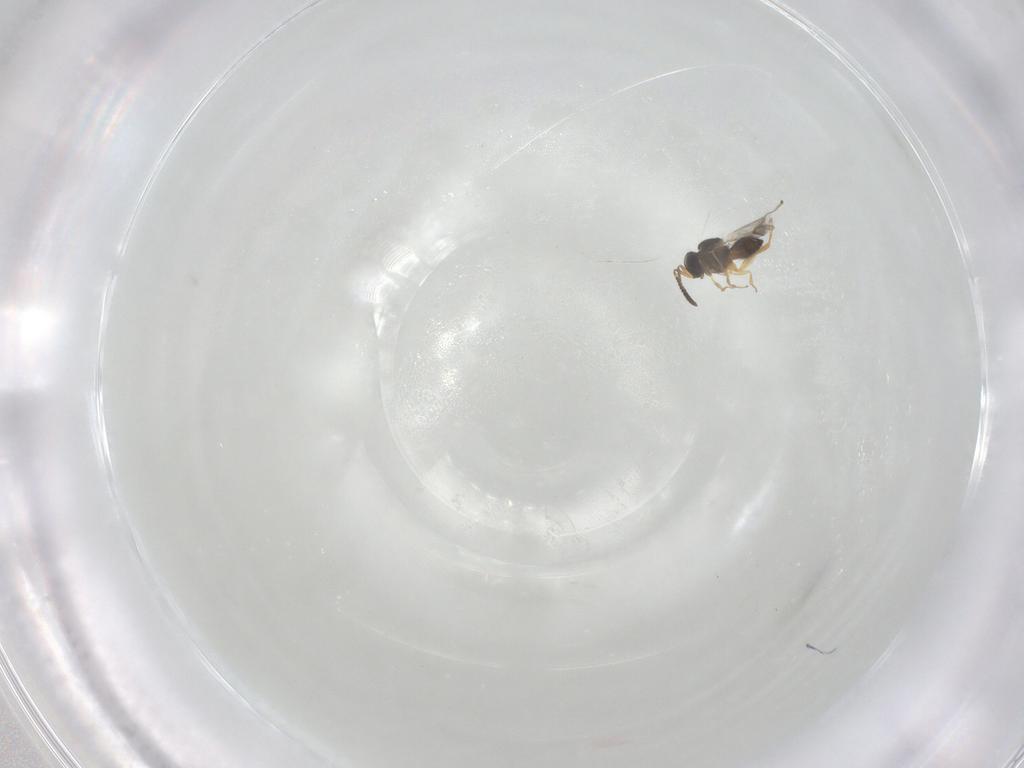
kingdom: Animalia
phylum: Arthropoda
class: Insecta
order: Hymenoptera
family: Scelionidae
